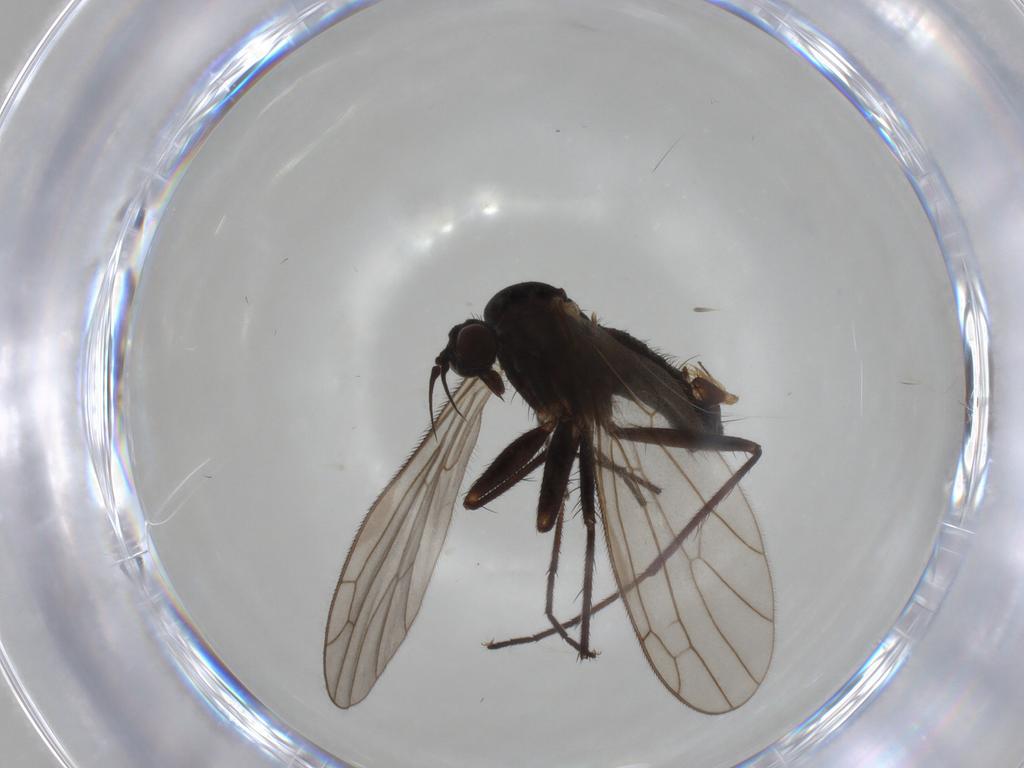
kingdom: Animalia
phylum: Arthropoda
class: Insecta
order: Diptera
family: Empididae
